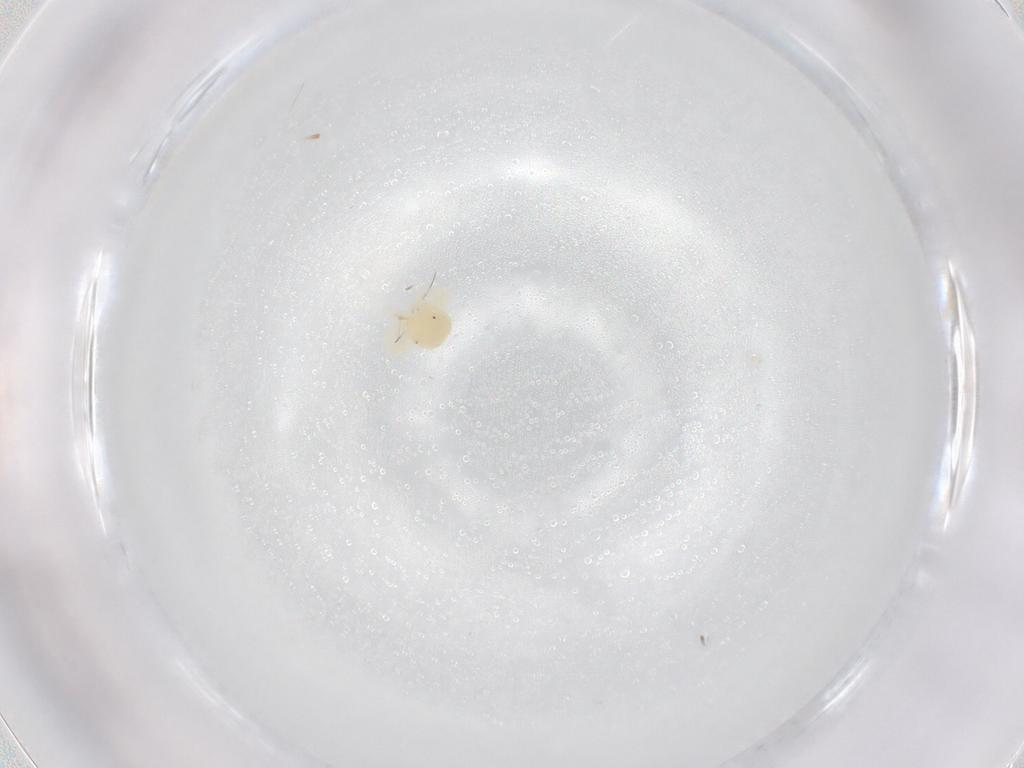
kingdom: Animalia
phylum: Arthropoda
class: Arachnida
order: Trombidiformes
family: Anystidae
